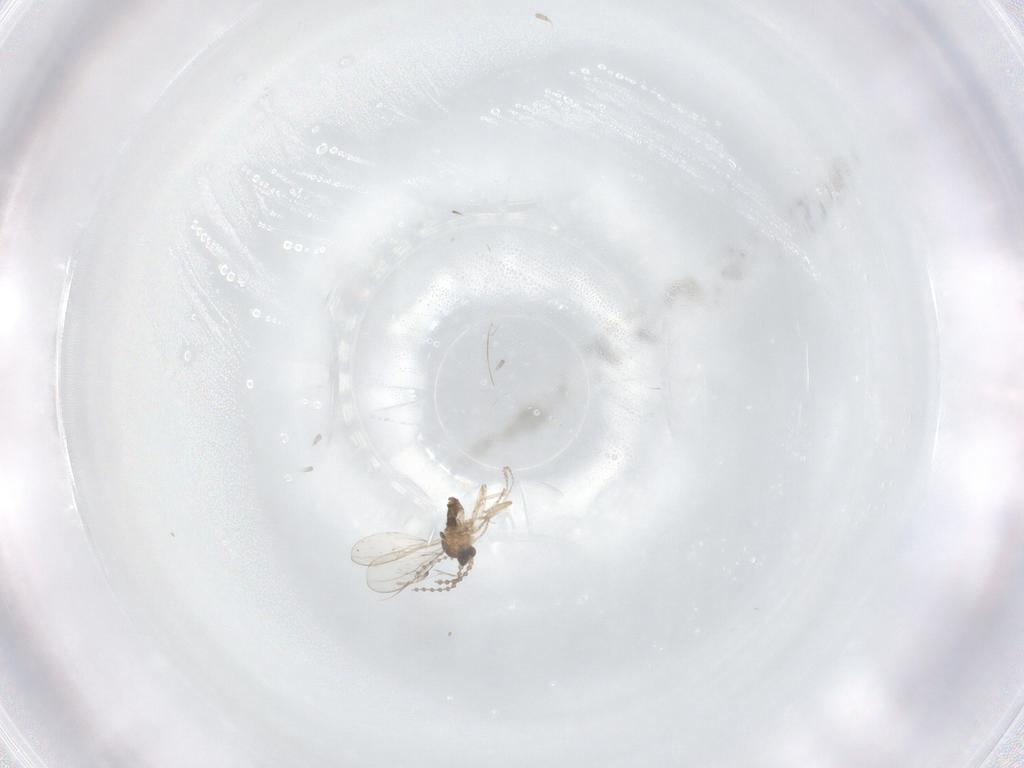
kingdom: Animalia
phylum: Arthropoda
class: Insecta
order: Diptera
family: Cecidomyiidae
